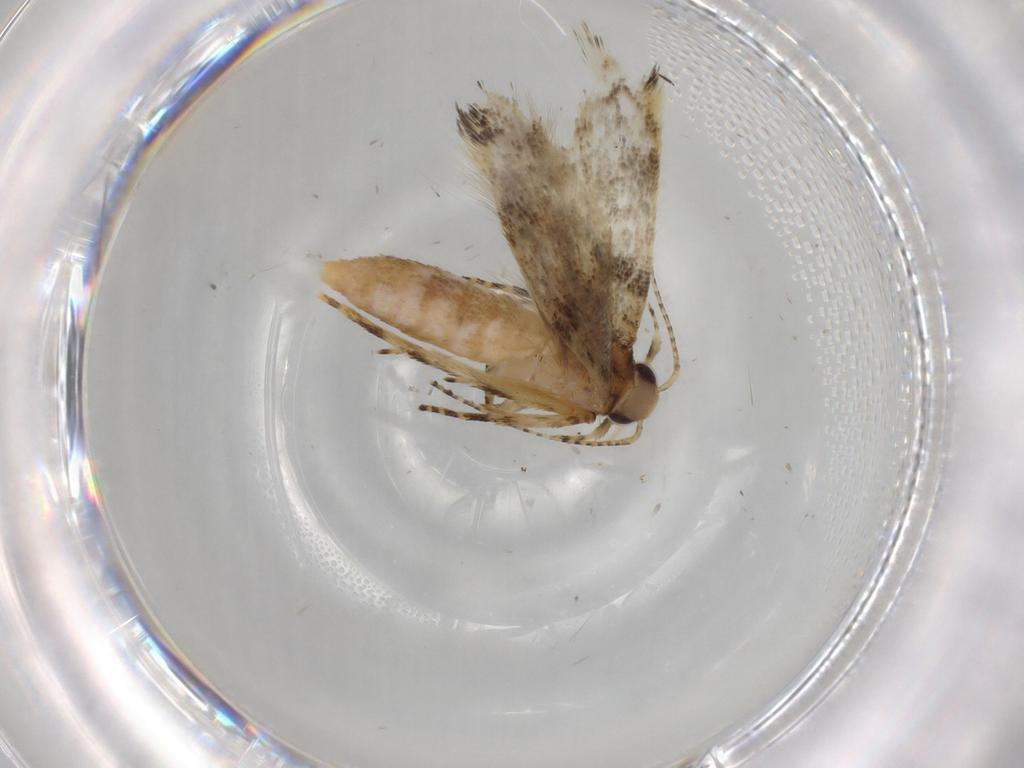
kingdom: Animalia
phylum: Arthropoda
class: Insecta
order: Lepidoptera
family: Gelechiidae
